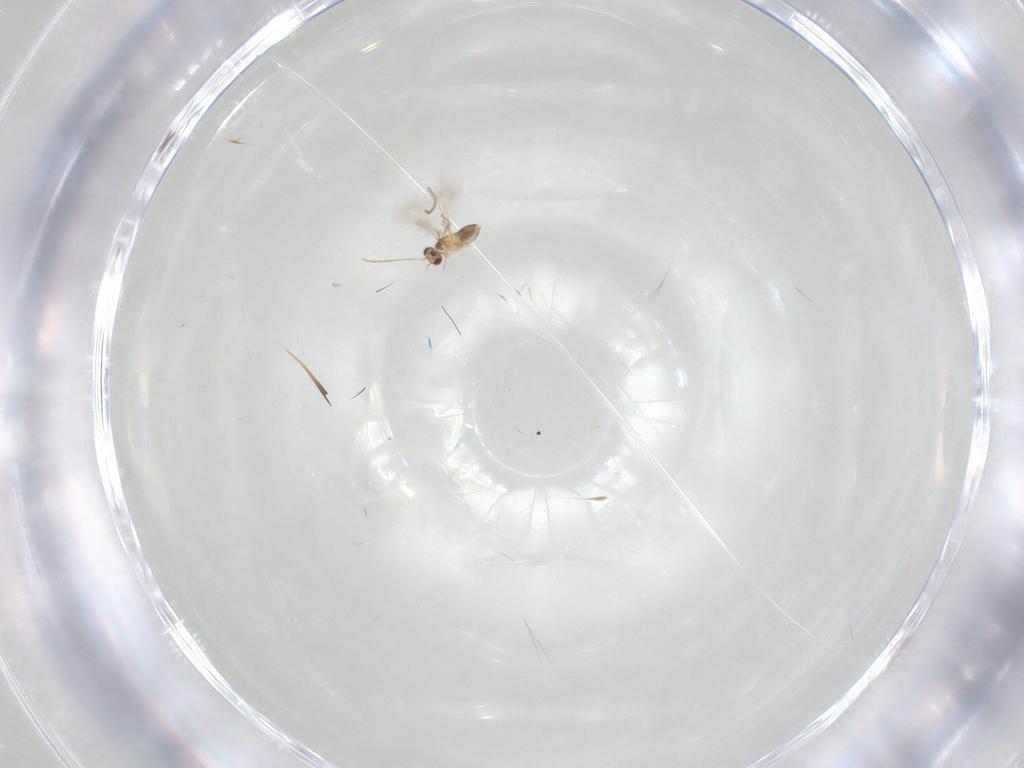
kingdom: Animalia
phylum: Arthropoda
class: Insecta
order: Hymenoptera
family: Mymaridae
